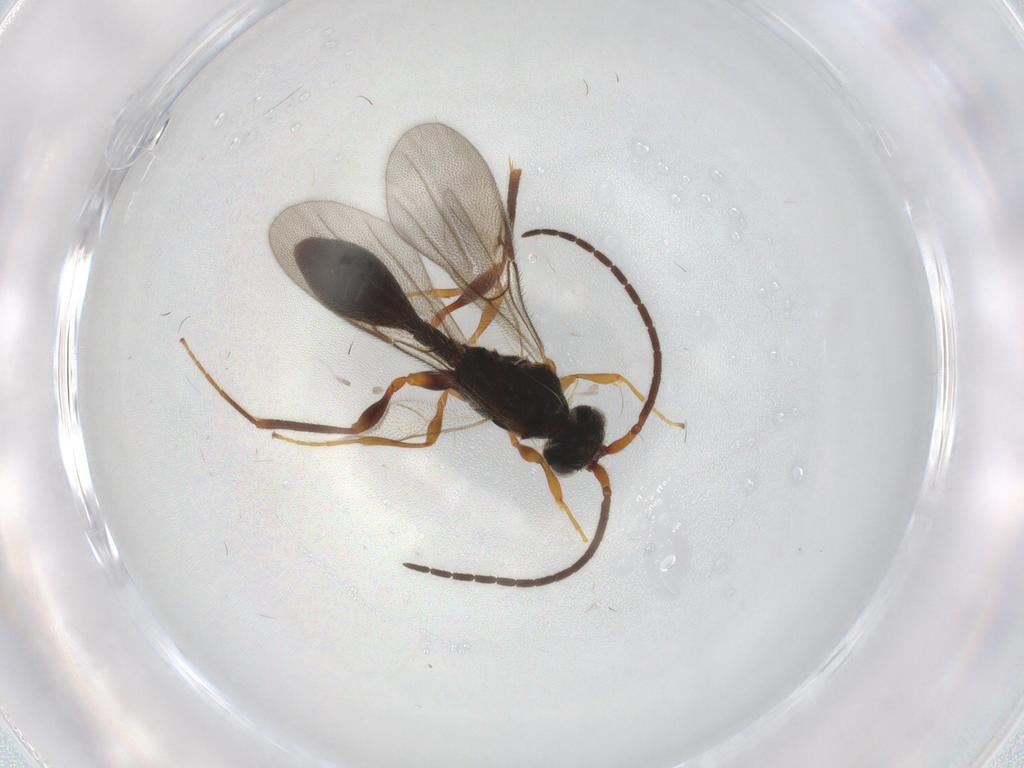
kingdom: Animalia
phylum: Arthropoda
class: Insecta
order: Hymenoptera
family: Diapriidae
